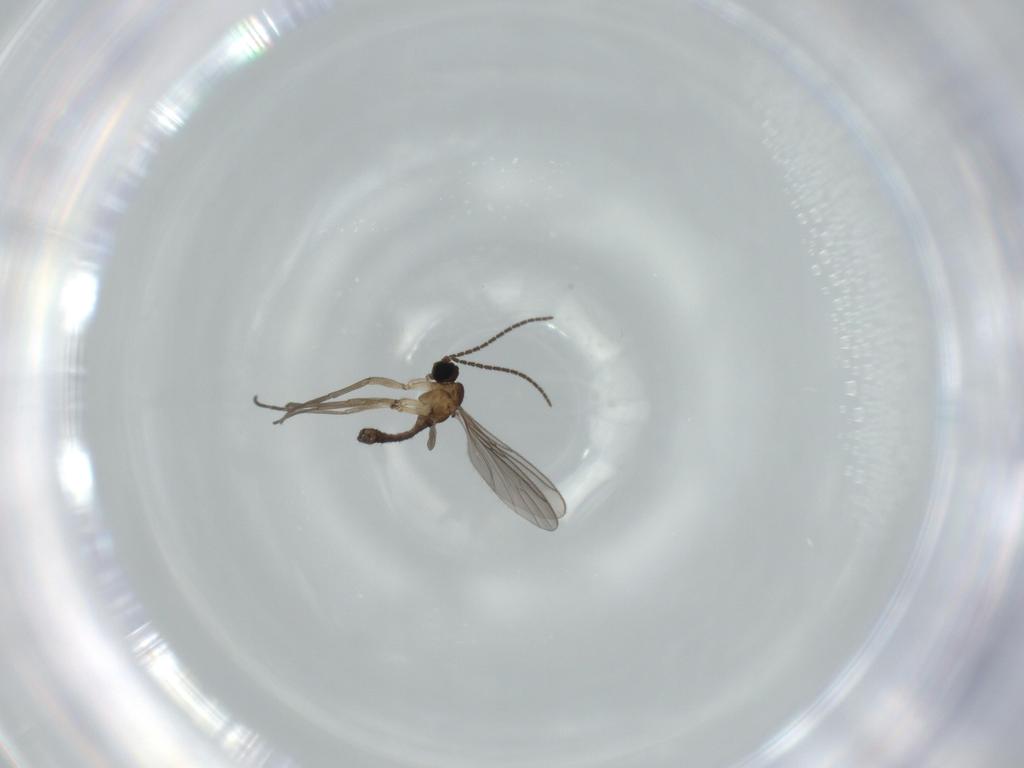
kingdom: Animalia
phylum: Arthropoda
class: Insecta
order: Diptera
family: Sciaridae
